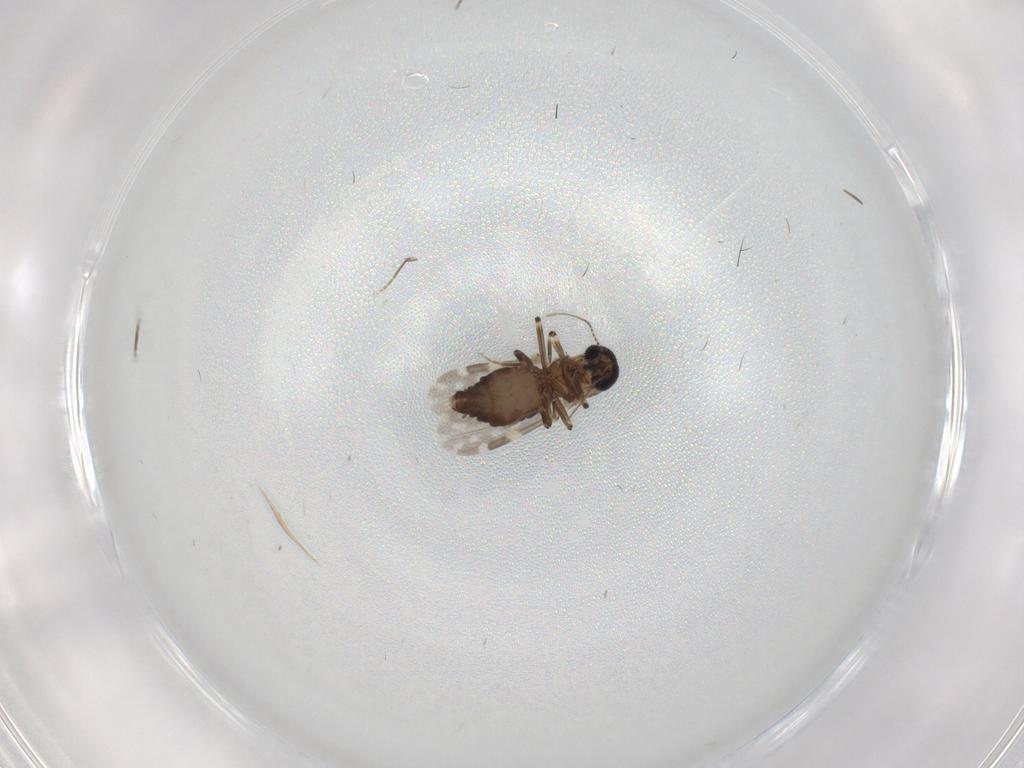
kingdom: Animalia
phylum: Arthropoda
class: Insecta
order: Diptera
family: Ceratopogonidae
